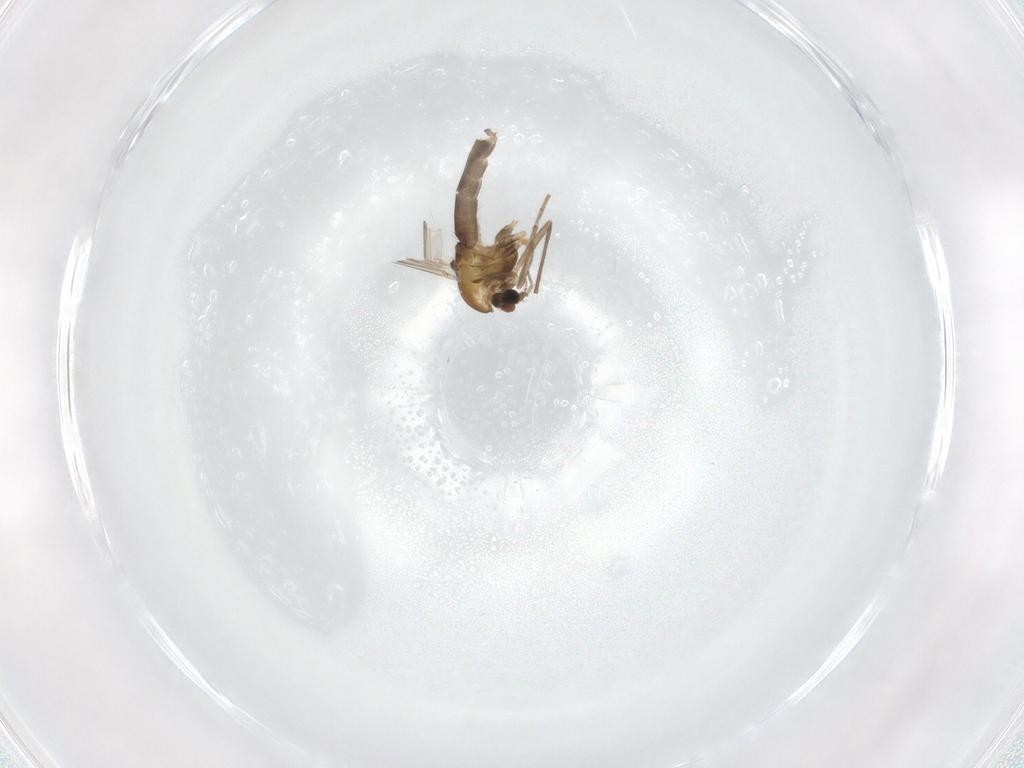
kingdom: Animalia
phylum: Arthropoda
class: Insecta
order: Diptera
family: Chironomidae
